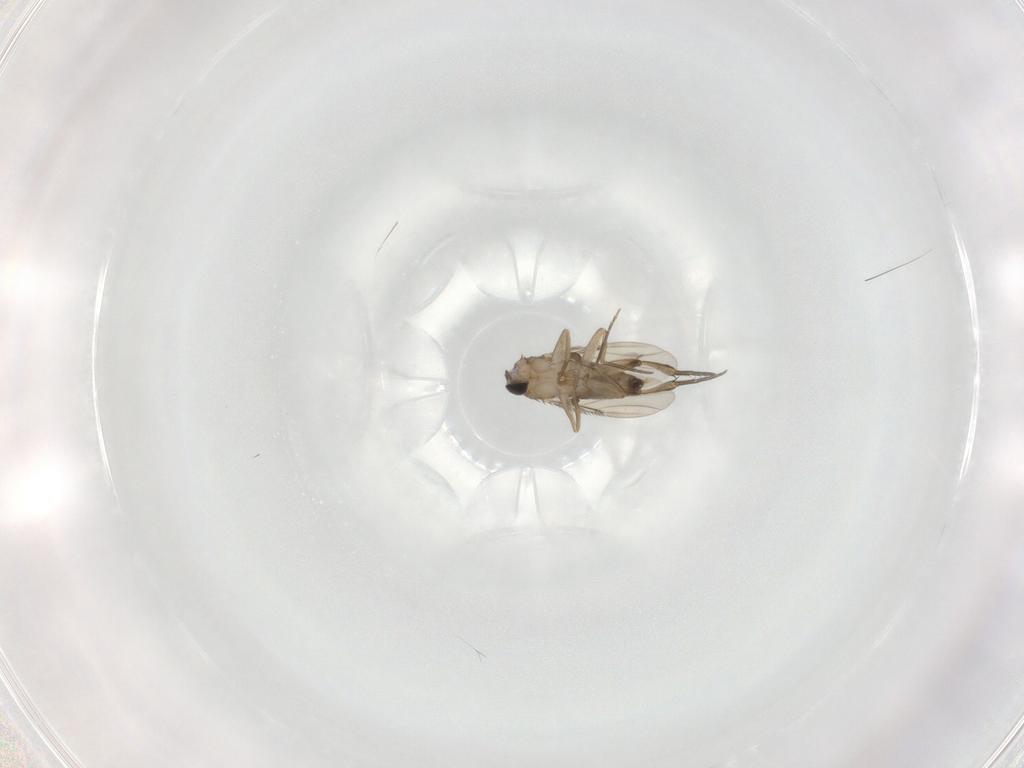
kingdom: Animalia
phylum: Arthropoda
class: Insecta
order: Diptera
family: Phoridae
